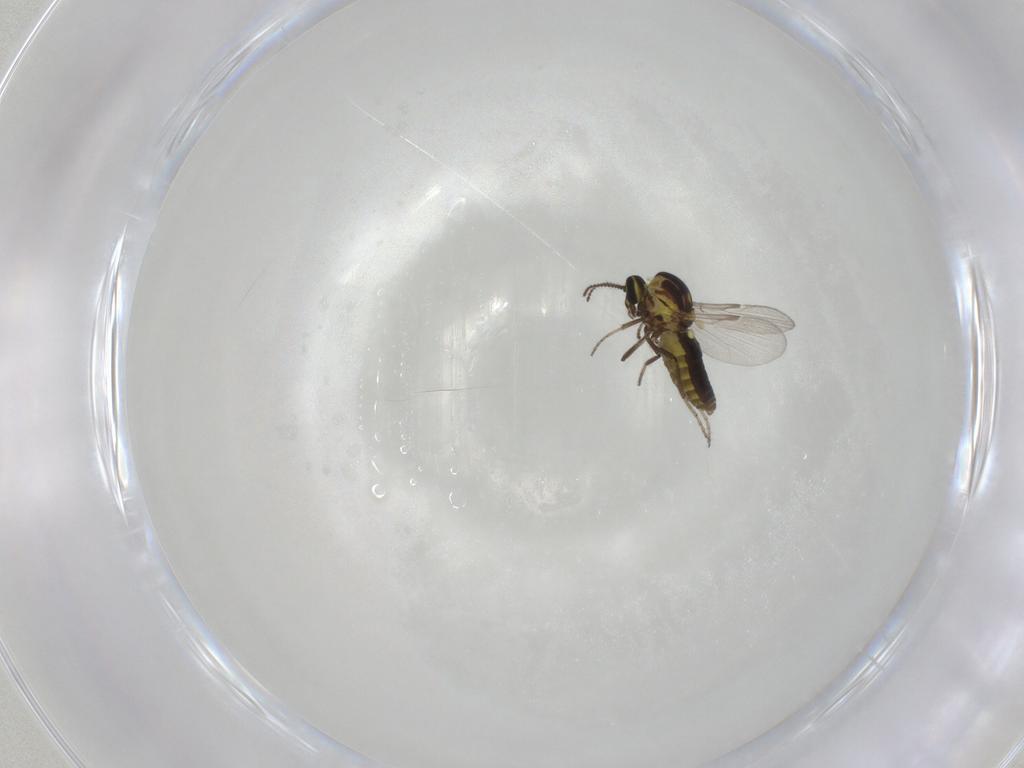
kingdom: Animalia
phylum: Arthropoda
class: Insecta
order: Diptera
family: Ceratopogonidae
